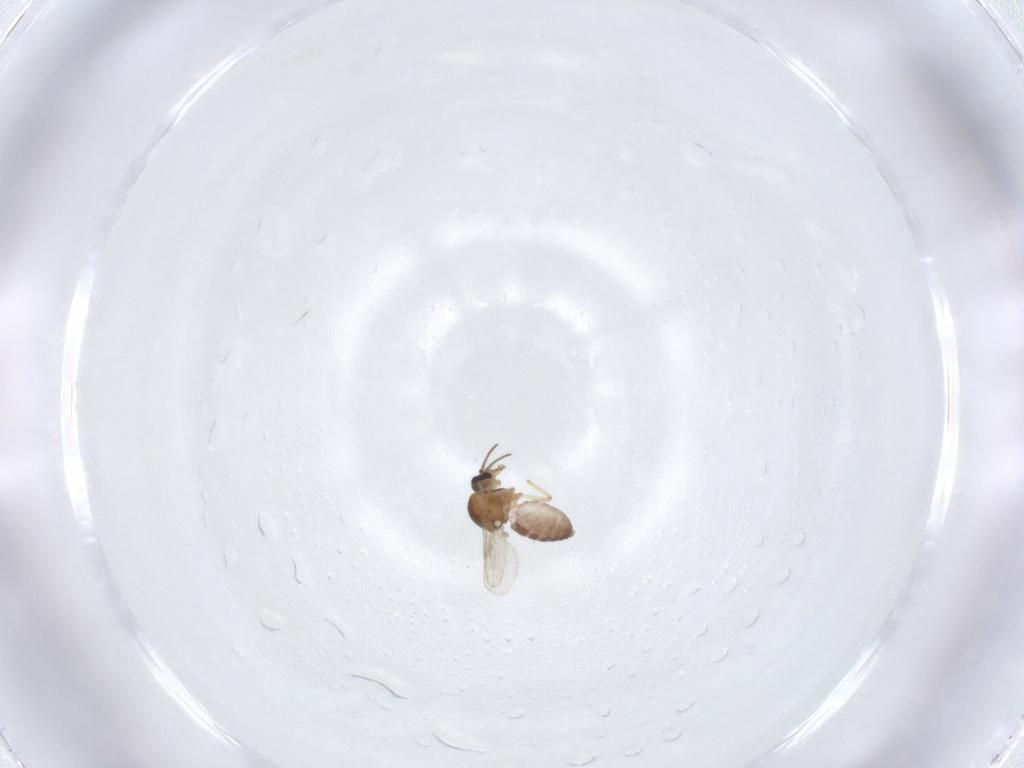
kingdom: Animalia
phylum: Arthropoda
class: Insecta
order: Diptera
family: Ceratopogonidae
